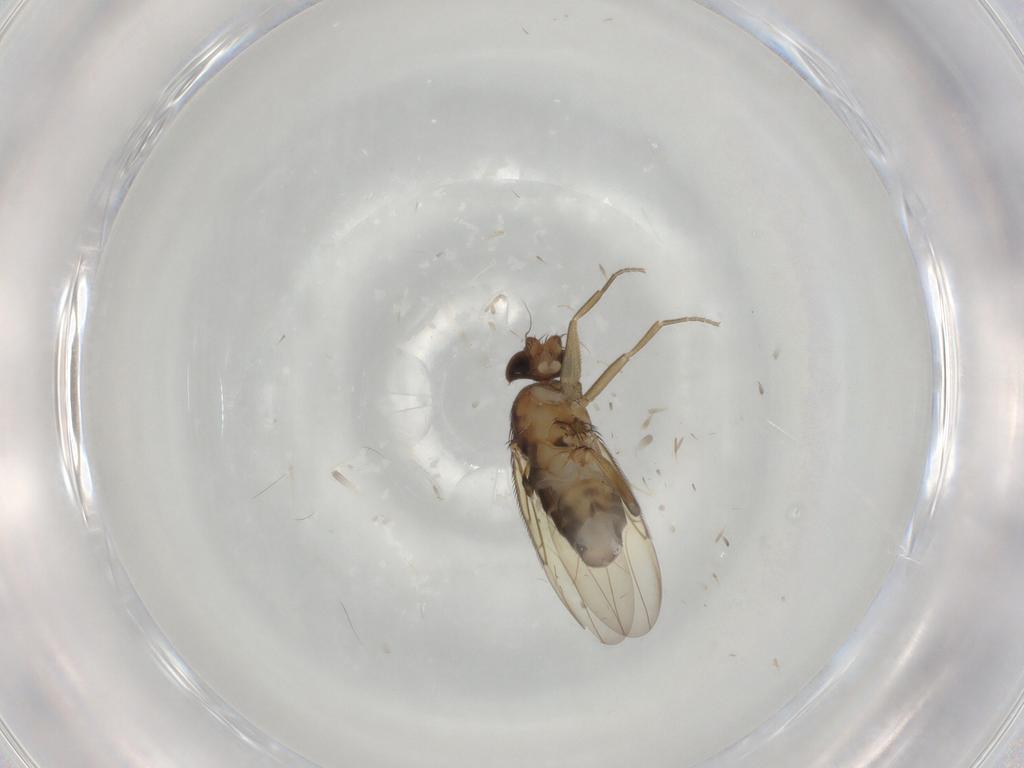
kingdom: Animalia
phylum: Arthropoda
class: Insecta
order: Diptera
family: Phoridae
